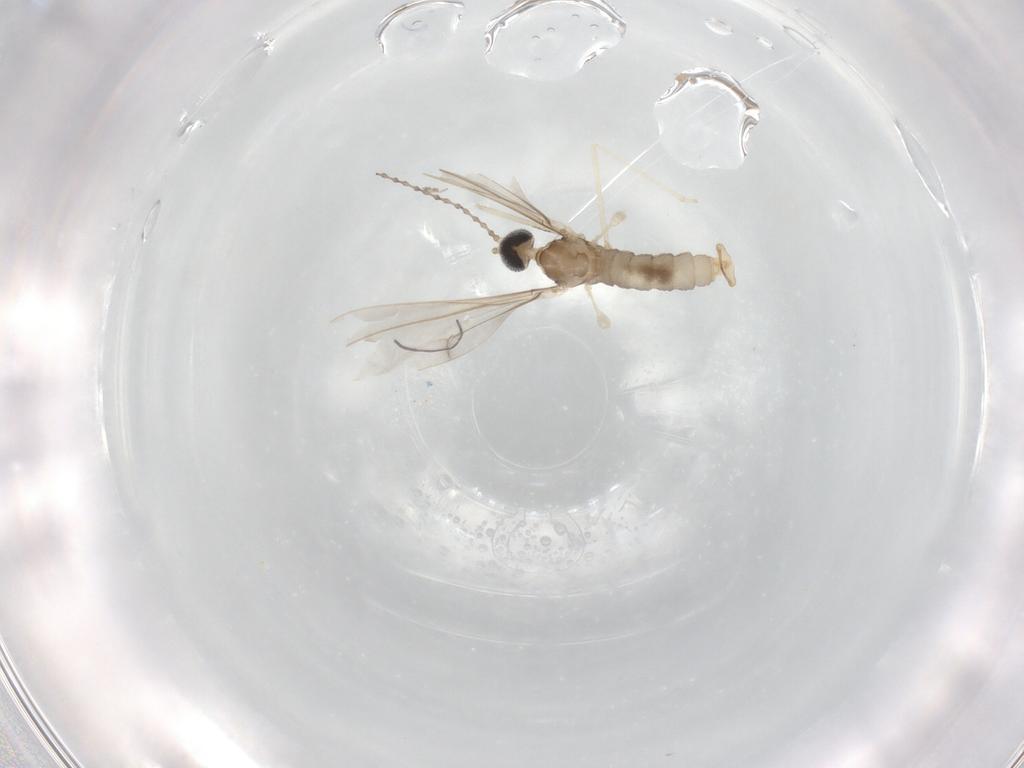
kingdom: Animalia
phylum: Arthropoda
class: Insecta
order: Diptera
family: Cecidomyiidae
